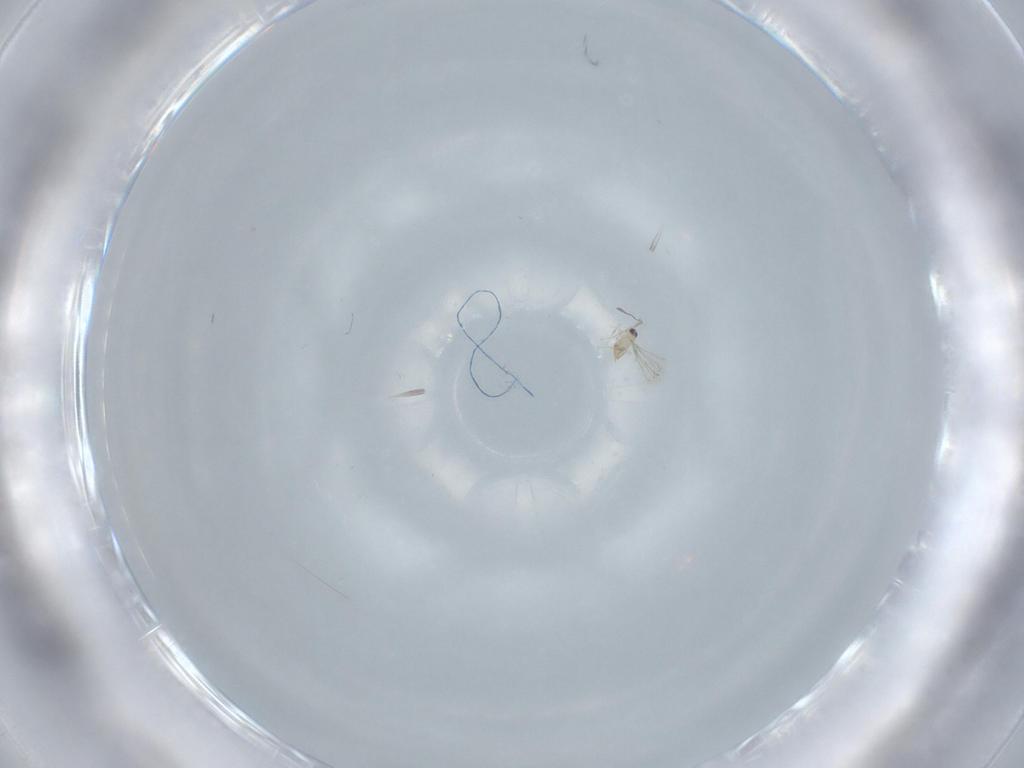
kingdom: Animalia
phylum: Arthropoda
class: Insecta
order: Hymenoptera
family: Mymaridae
